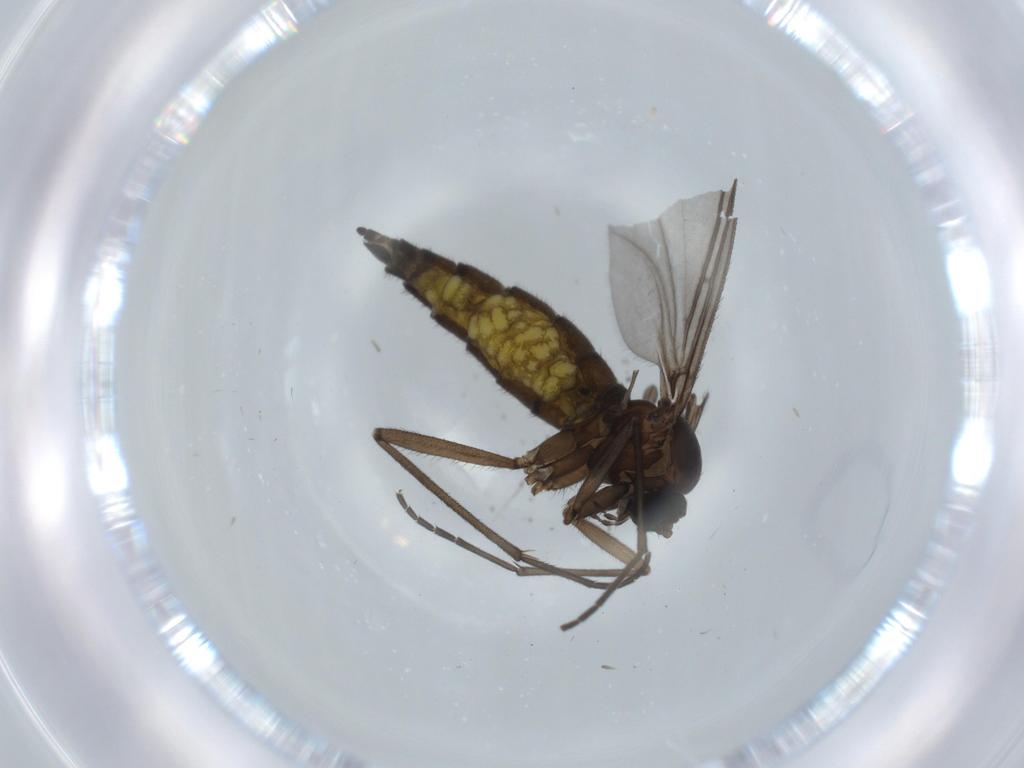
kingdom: Animalia
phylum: Arthropoda
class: Insecta
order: Diptera
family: Sciaridae
